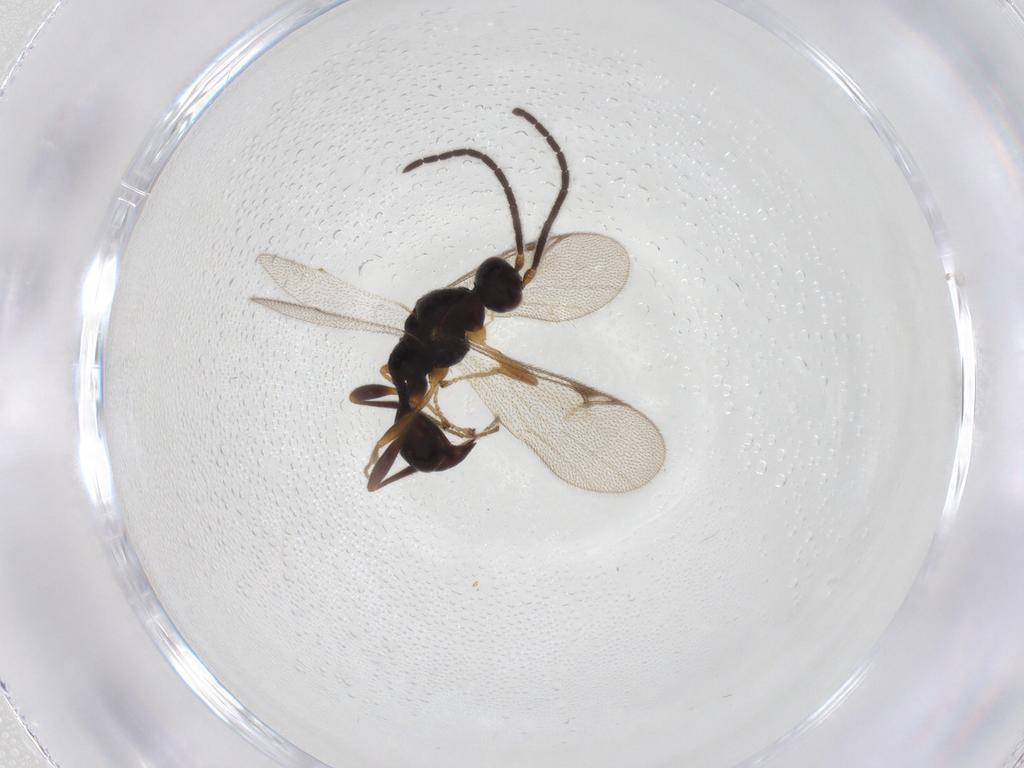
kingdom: Animalia
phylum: Arthropoda
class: Insecta
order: Hymenoptera
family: Proctotrupidae
